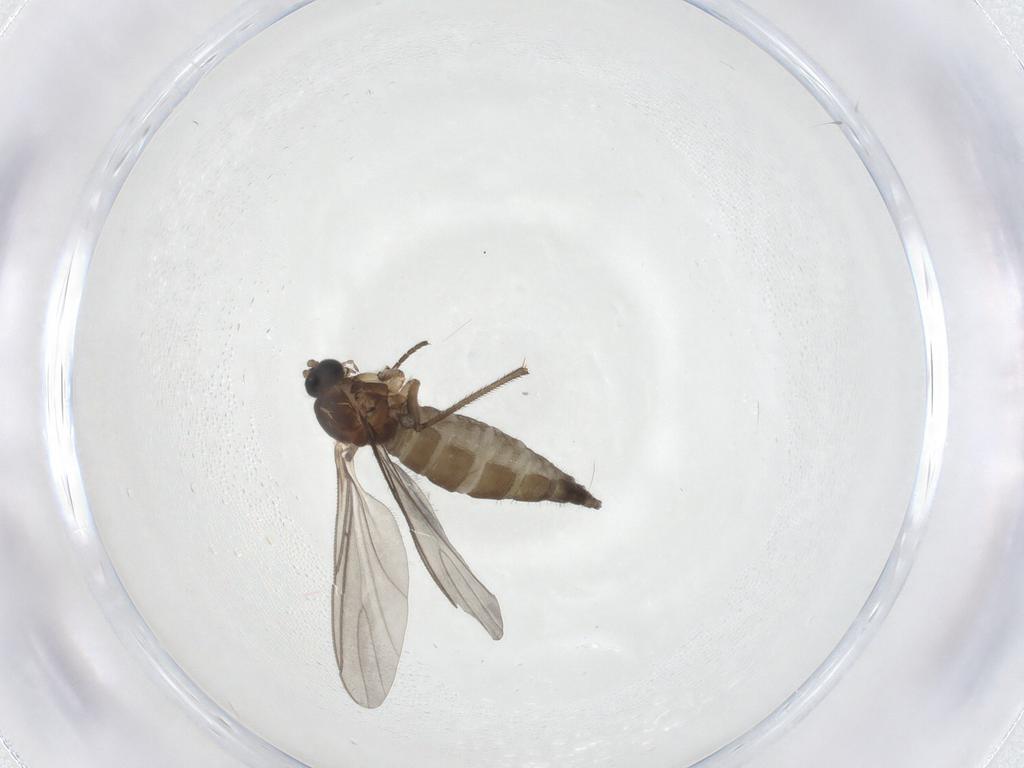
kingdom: Animalia
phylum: Arthropoda
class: Insecta
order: Diptera
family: Sciaridae
